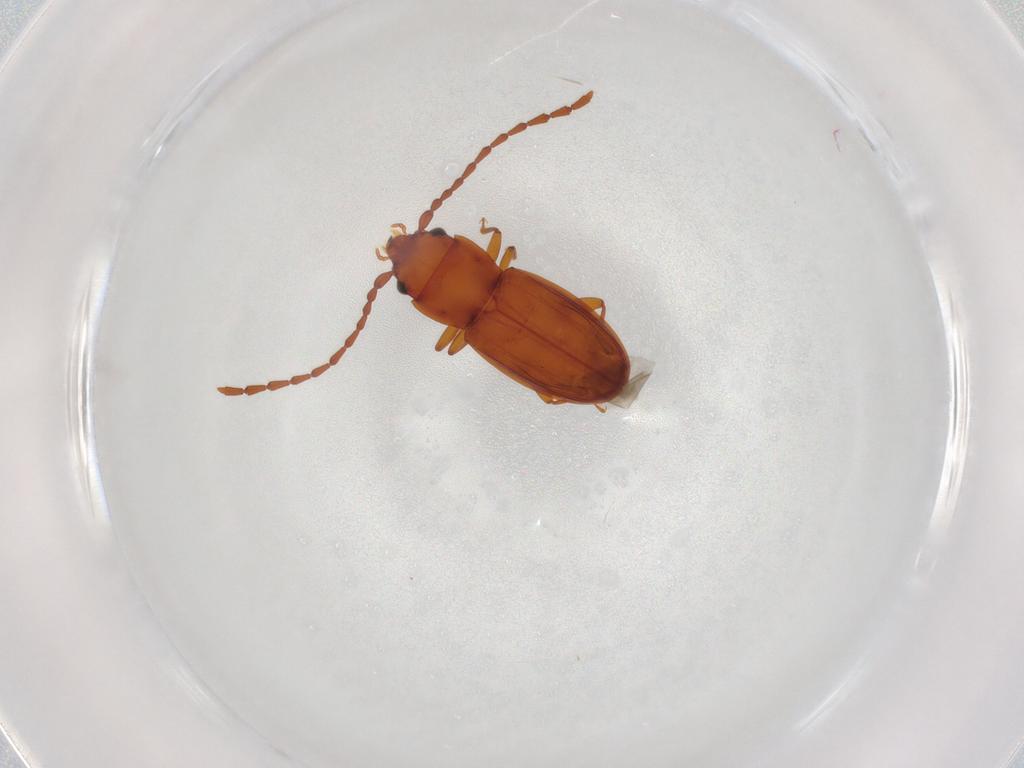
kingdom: Animalia
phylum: Arthropoda
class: Insecta
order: Coleoptera
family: Laemophloeidae
